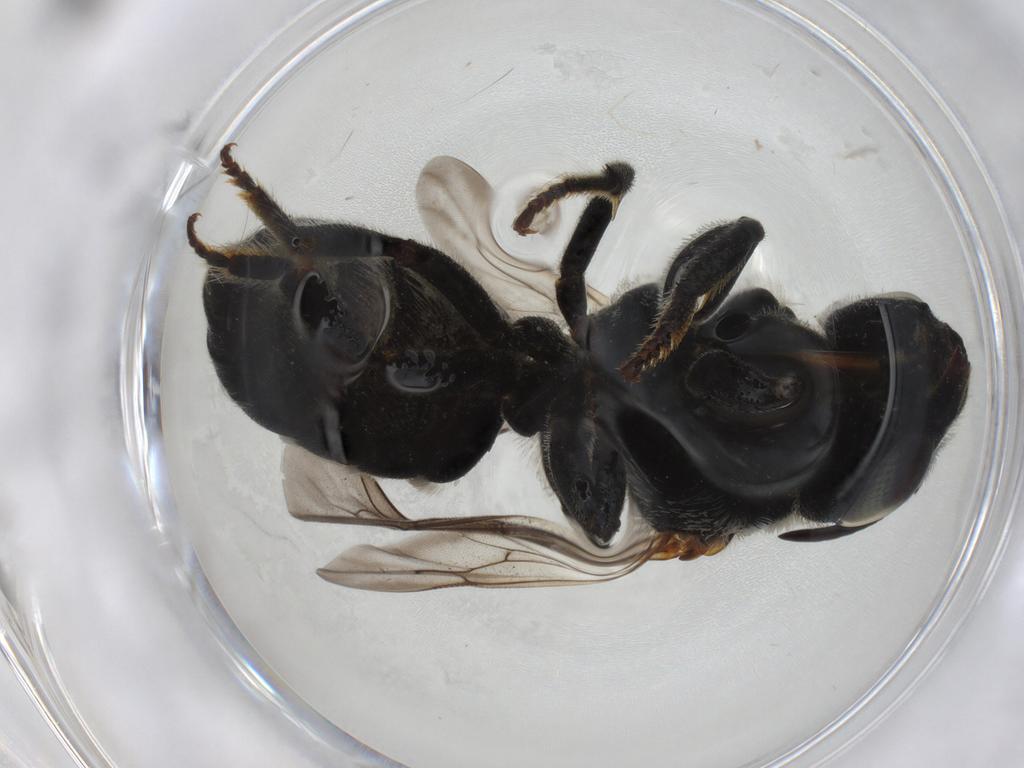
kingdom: Animalia
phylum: Arthropoda
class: Insecta
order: Hymenoptera
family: Megachilidae
